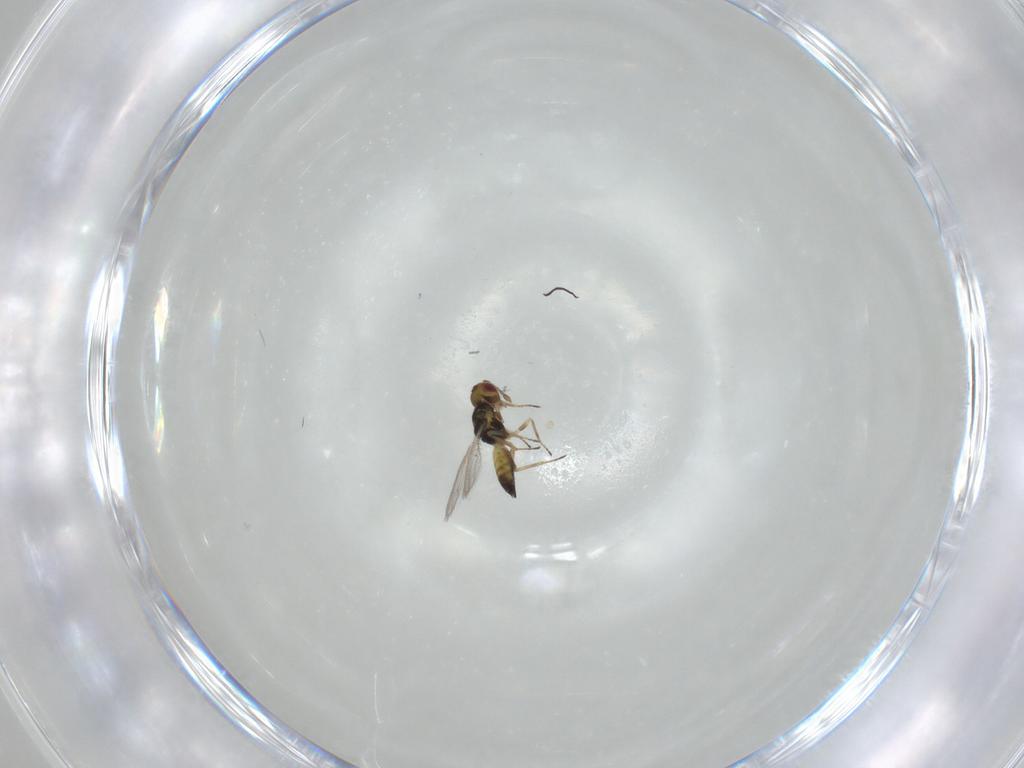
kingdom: Animalia
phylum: Arthropoda
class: Insecta
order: Hymenoptera
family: Eulophidae
